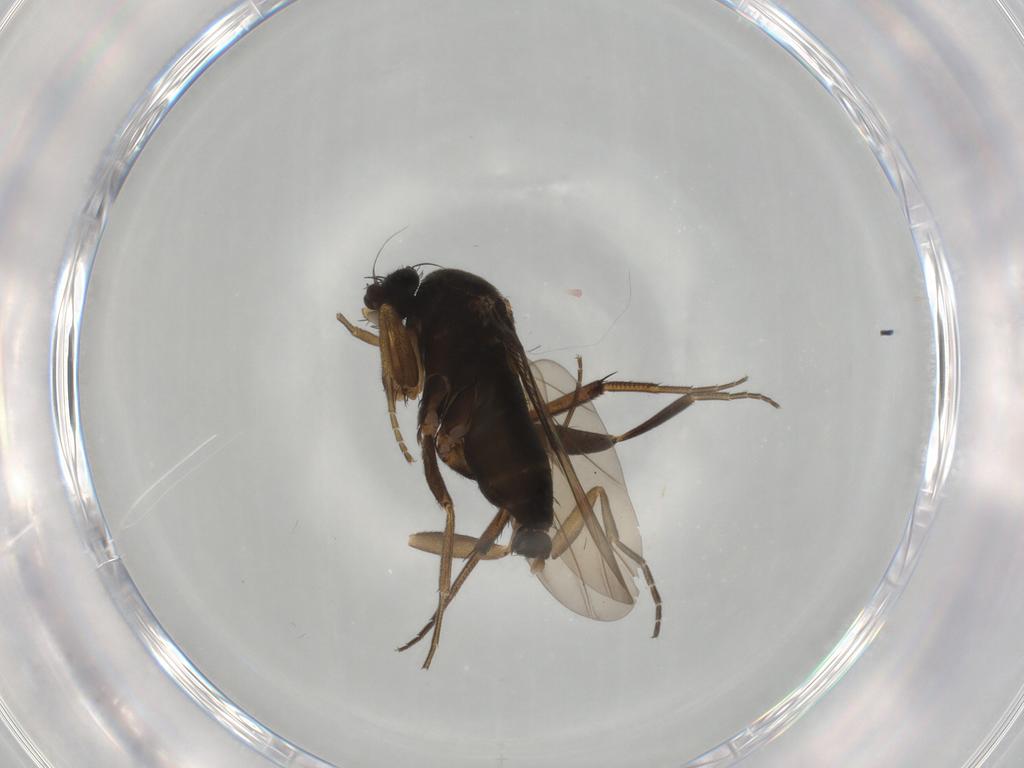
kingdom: Animalia
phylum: Arthropoda
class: Insecta
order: Diptera
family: Phoridae
